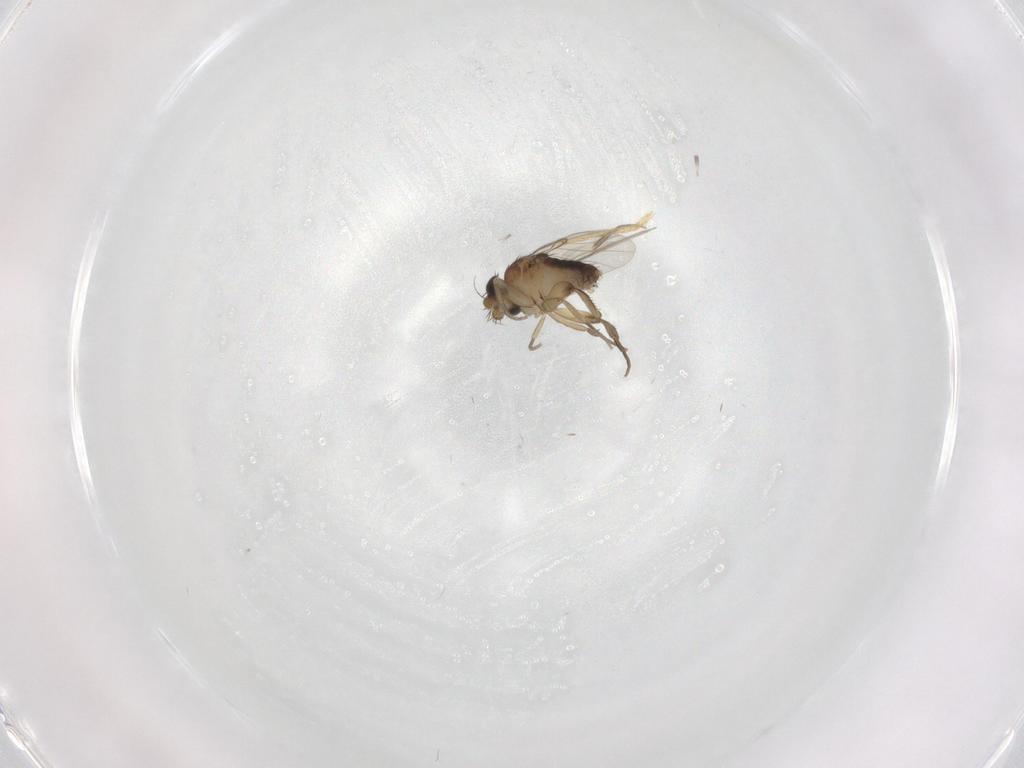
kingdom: Animalia
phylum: Arthropoda
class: Insecta
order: Diptera
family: Phoridae
